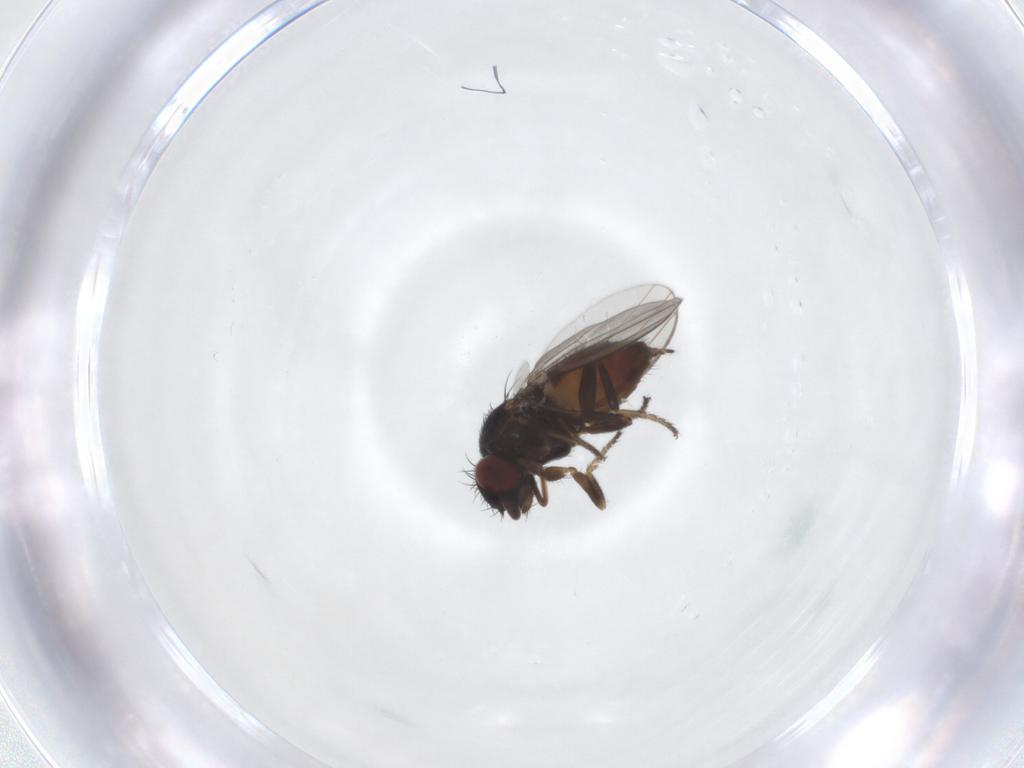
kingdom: Animalia
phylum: Arthropoda
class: Insecta
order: Diptera
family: Milichiidae
